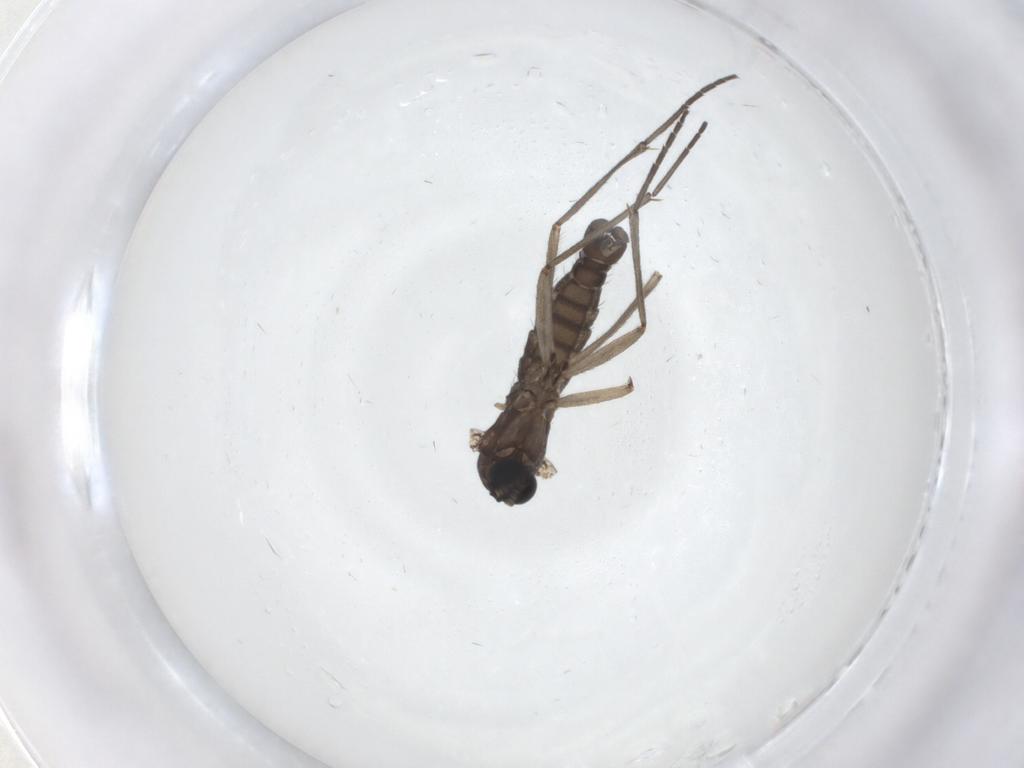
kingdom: Animalia
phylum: Arthropoda
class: Insecta
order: Diptera
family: Sciaridae
